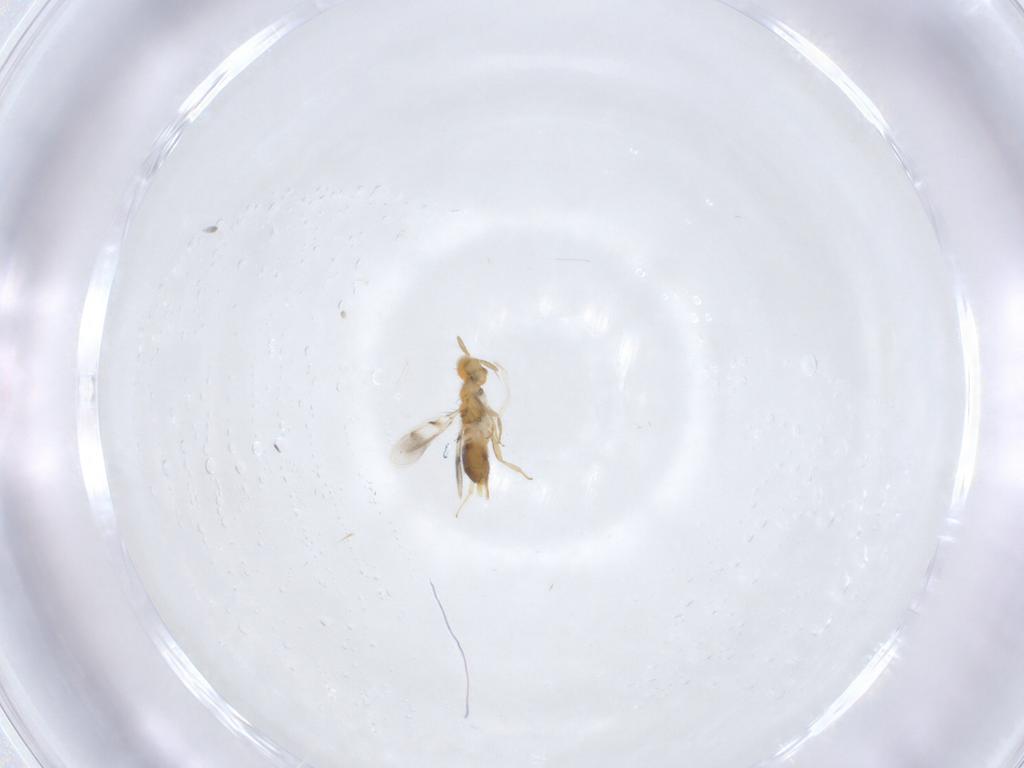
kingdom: Animalia
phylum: Arthropoda
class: Insecta
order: Hymenoptera
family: Aphelinidae
